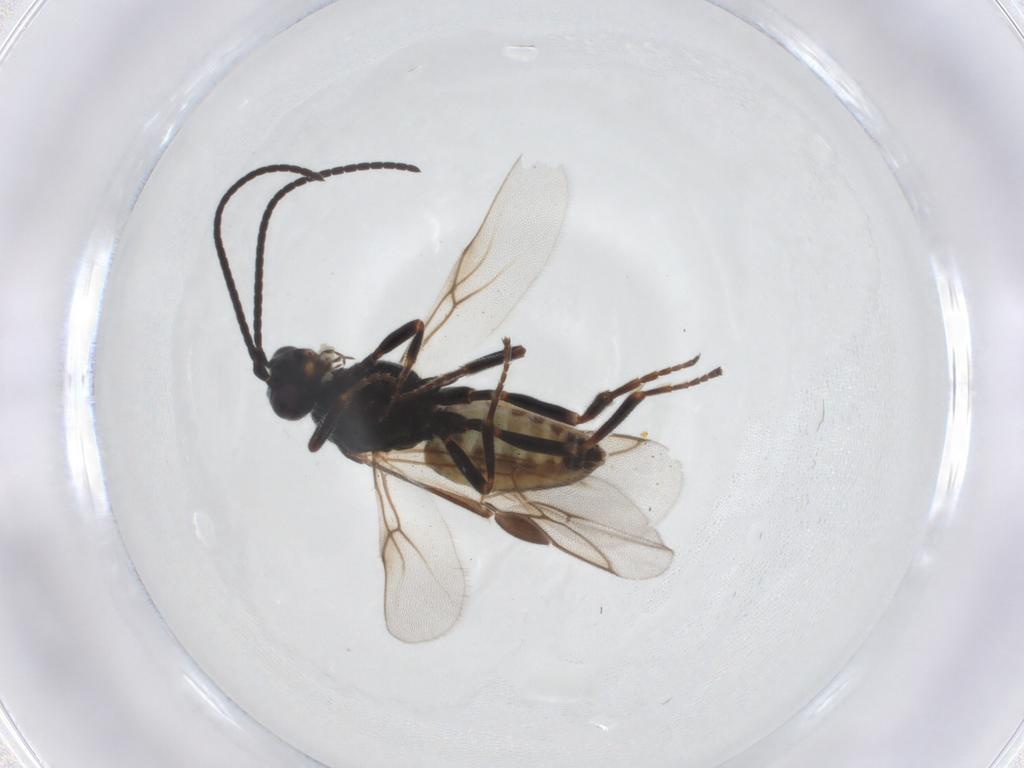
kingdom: Animalia
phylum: Arthropoda
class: Insecta
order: Hymenoptera
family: Braconidae
